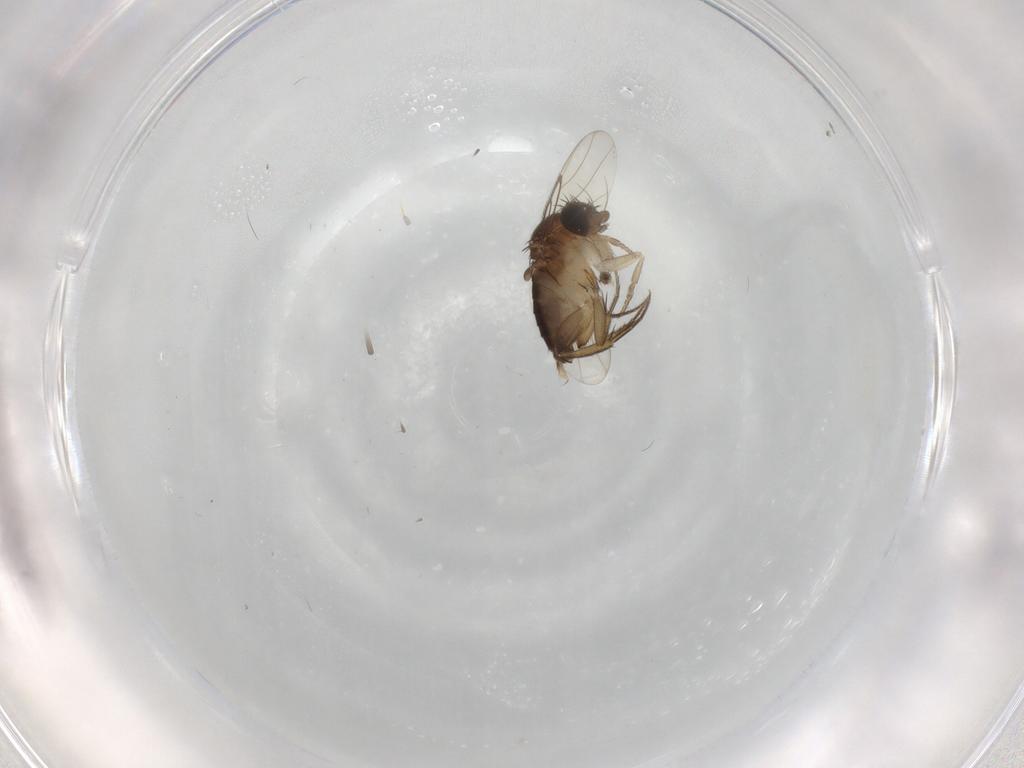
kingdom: Animalia
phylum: Arthropoda
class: Insecta
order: Diptera
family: Phoridae
